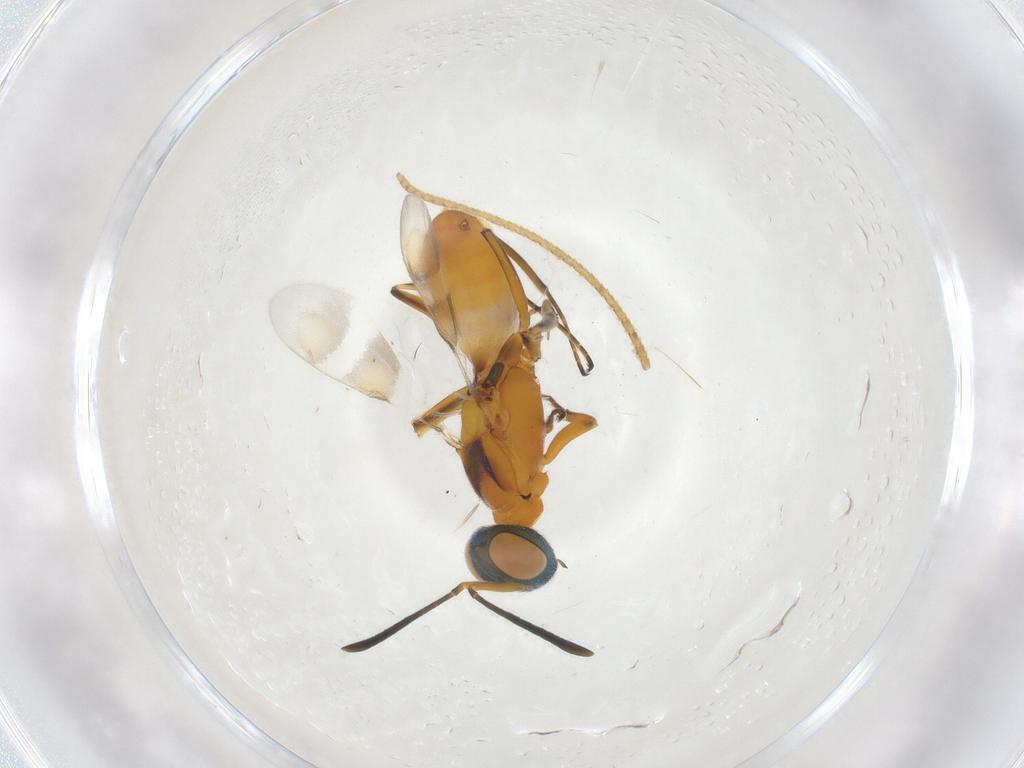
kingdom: Animalia
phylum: Arthropoda
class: Insecta
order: Hymenoptera
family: Eupelmidae
